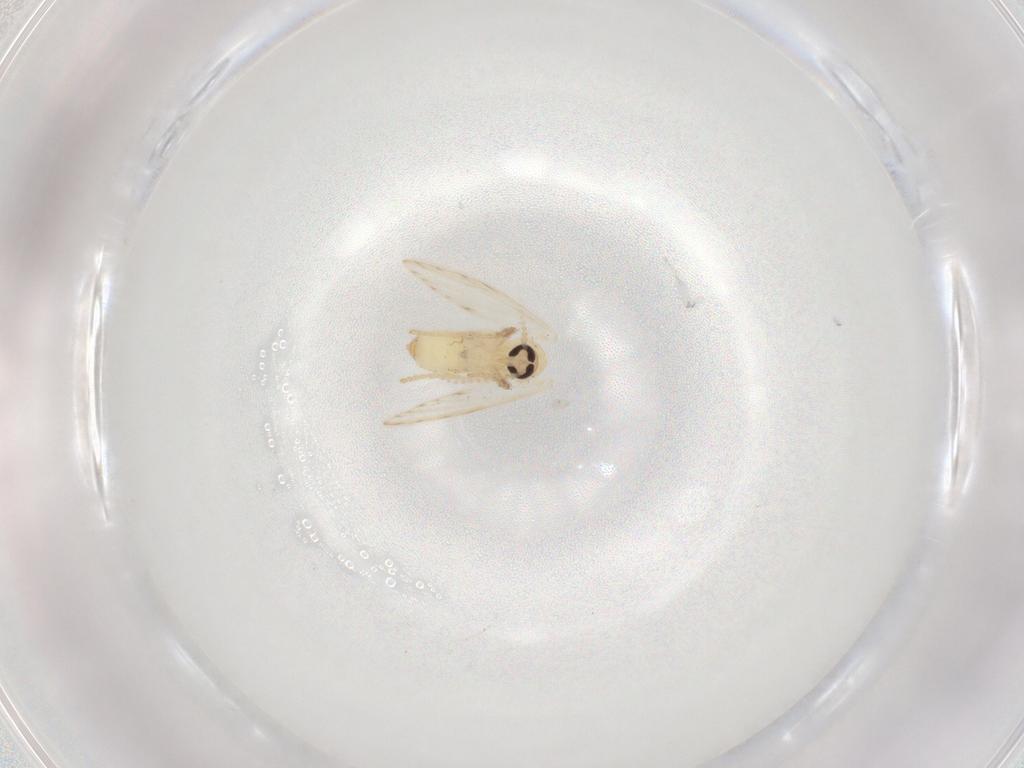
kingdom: Animalia
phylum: Arthropoda
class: Insecta
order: Diptera
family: Psychodidae
